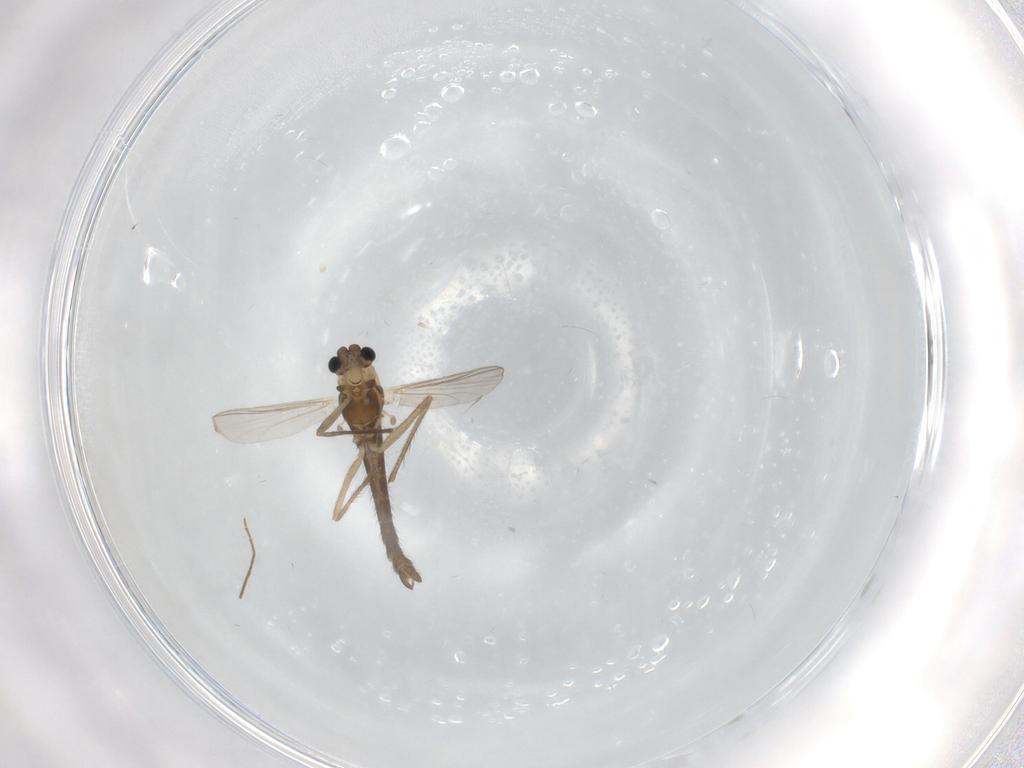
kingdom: Animalia
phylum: Arthropoda
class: Insecta
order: Diptera
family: Chironomidae
